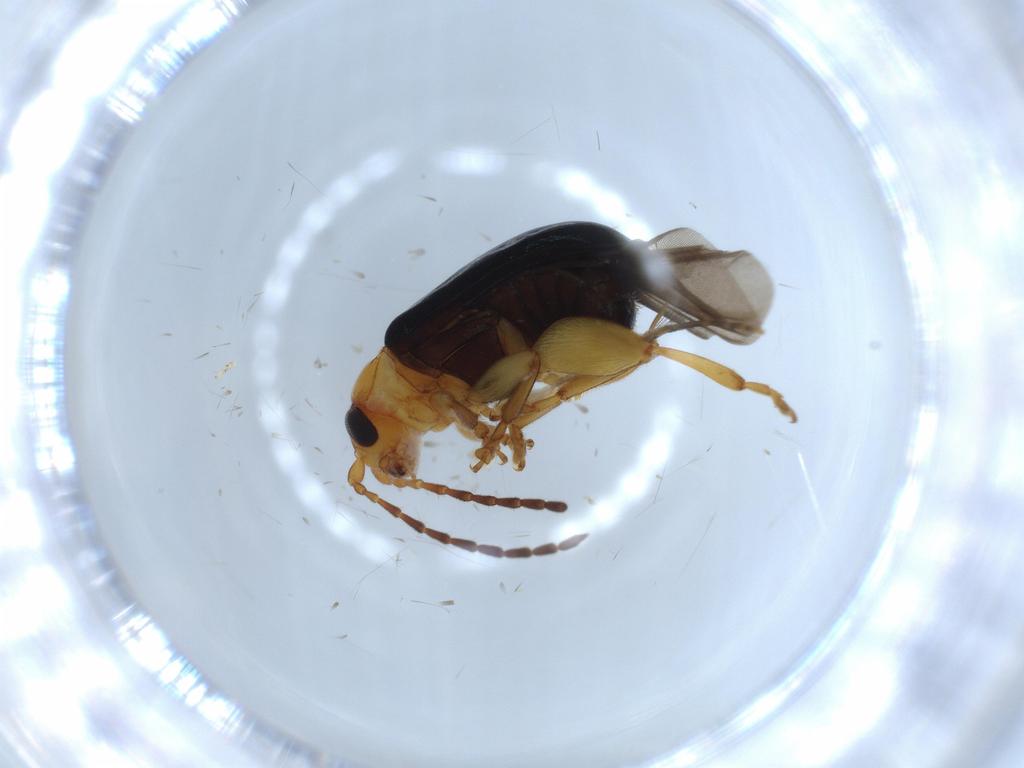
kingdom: Animalia
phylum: Arthropoda
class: Insecta
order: Coleoptera
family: Chrysomelidae
